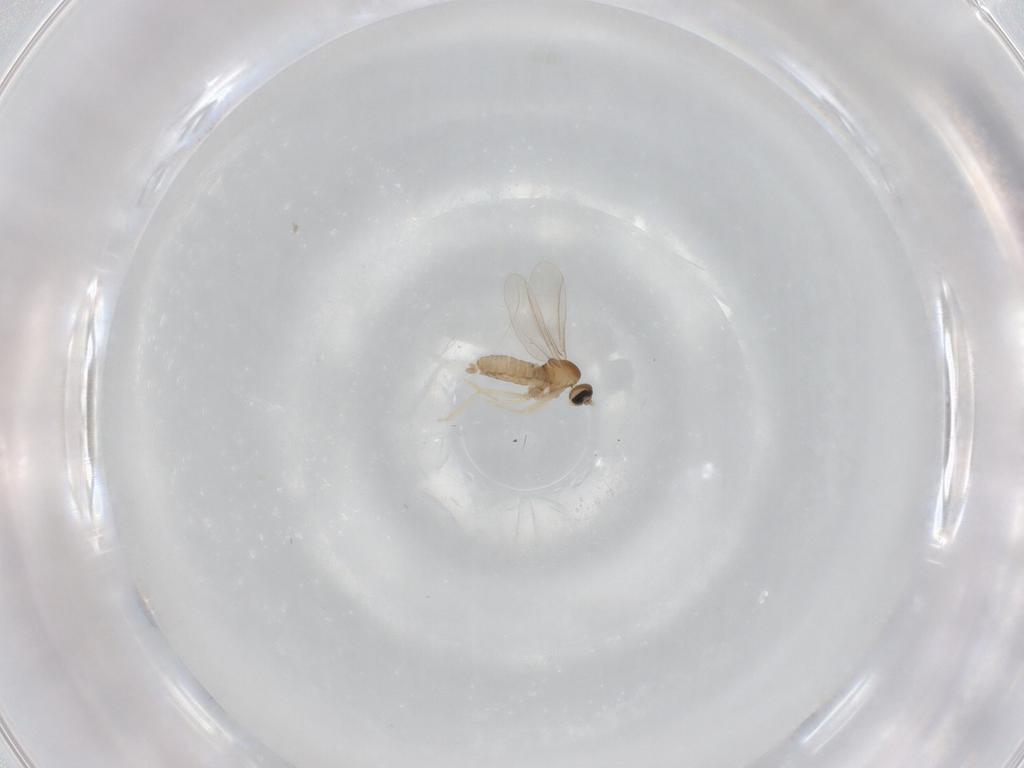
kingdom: Animalia
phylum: Arthropoda
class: Insecta
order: Diptera
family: Cecidomyiidae
